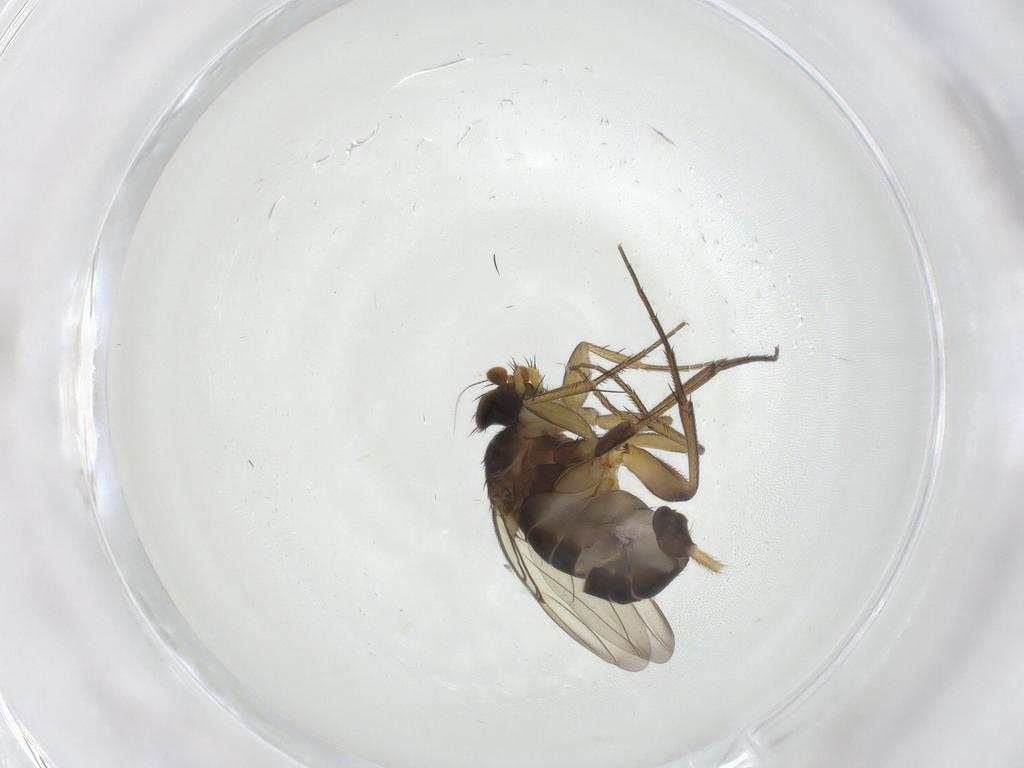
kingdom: Animalia
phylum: Arthropoda
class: Insecta
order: Diptera
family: Phoridae
